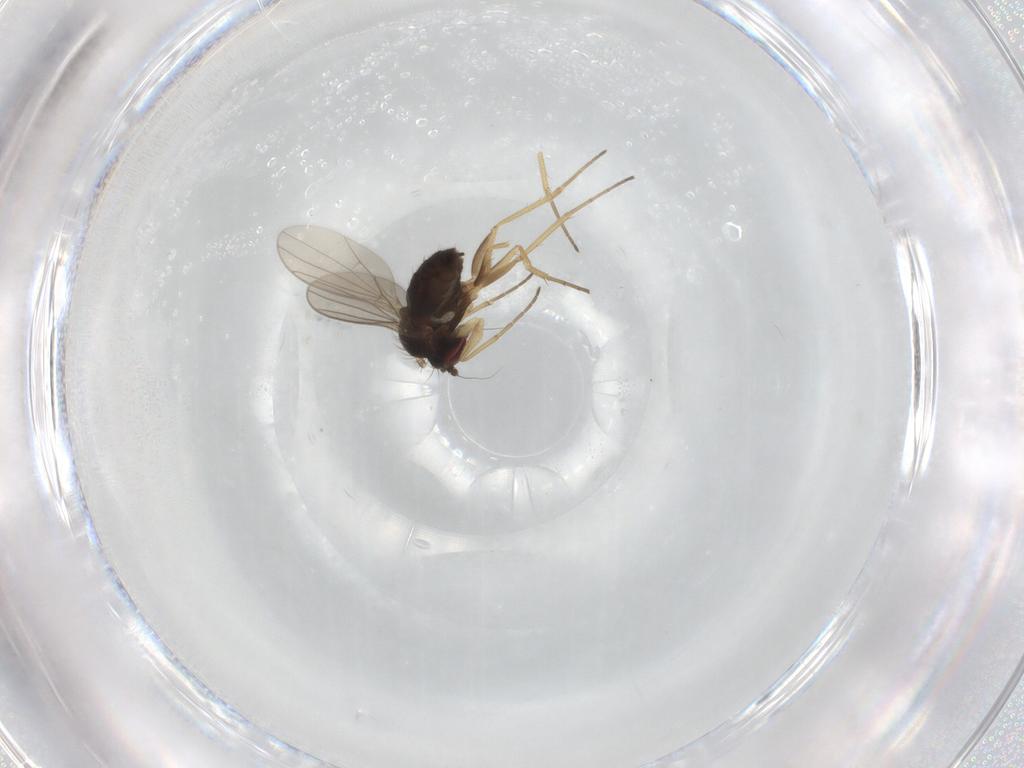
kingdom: Animalia
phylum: Arthropoda
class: Insecta
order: Diptera
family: Dolichopodidae
